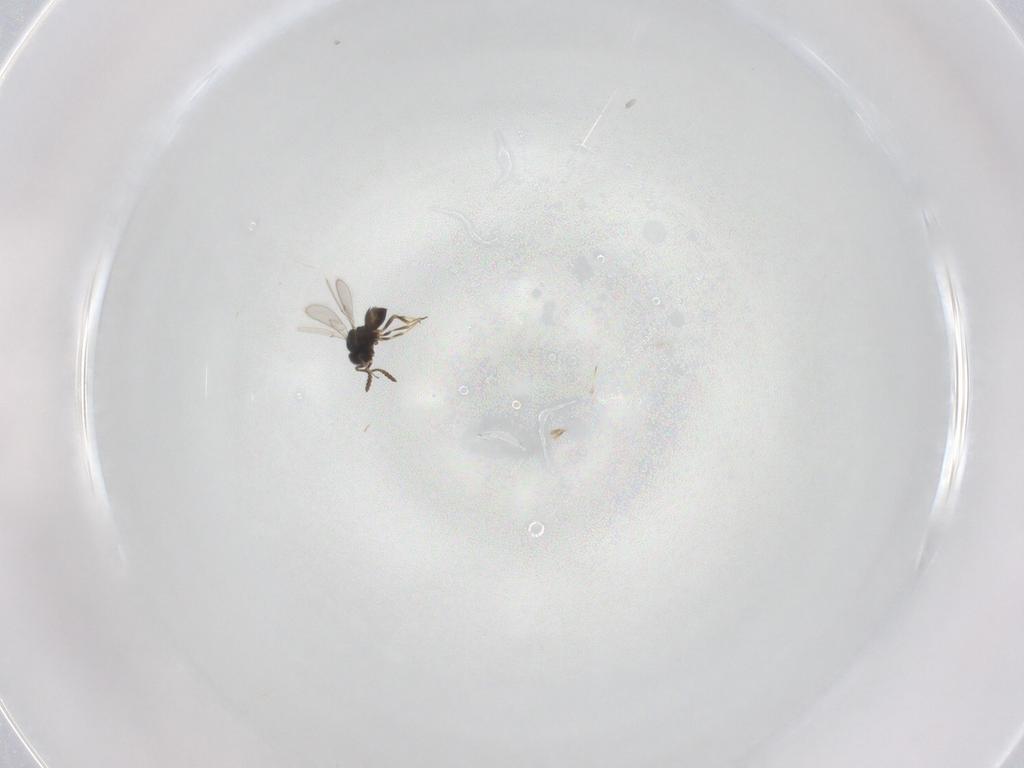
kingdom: Animalia
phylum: Arthropoda
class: Insecta
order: Hymenoptera
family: Scelionidae
